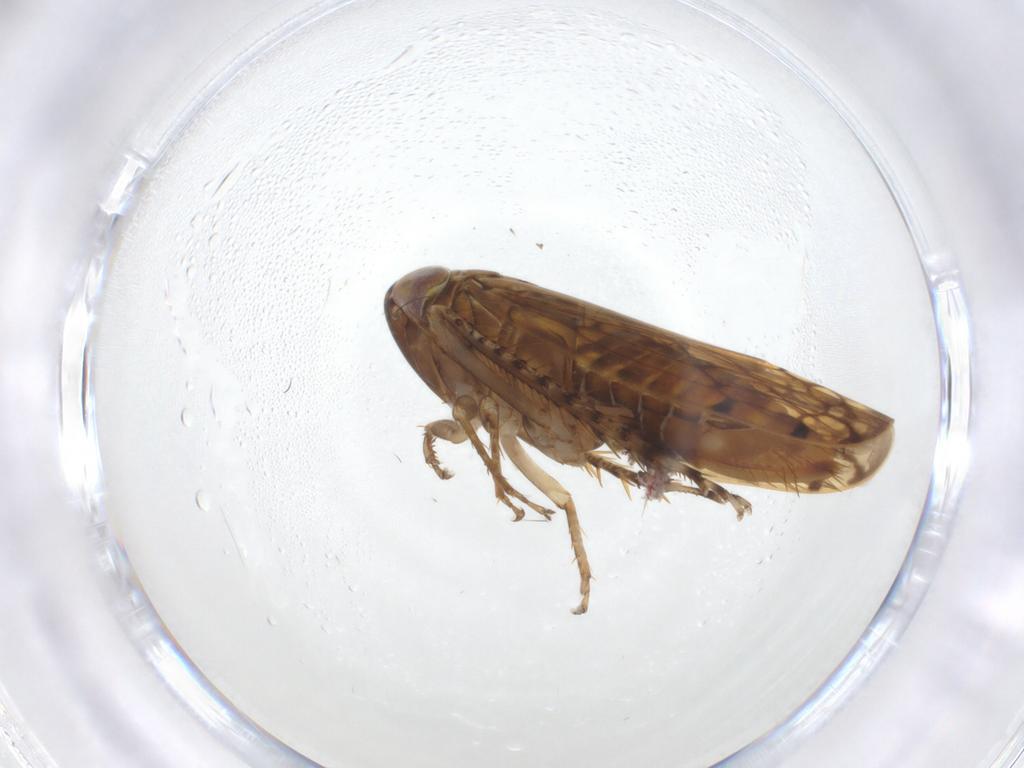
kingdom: Animalia
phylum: Arthropoda
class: Insecta
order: Hemiptera
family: Cicadellidae
